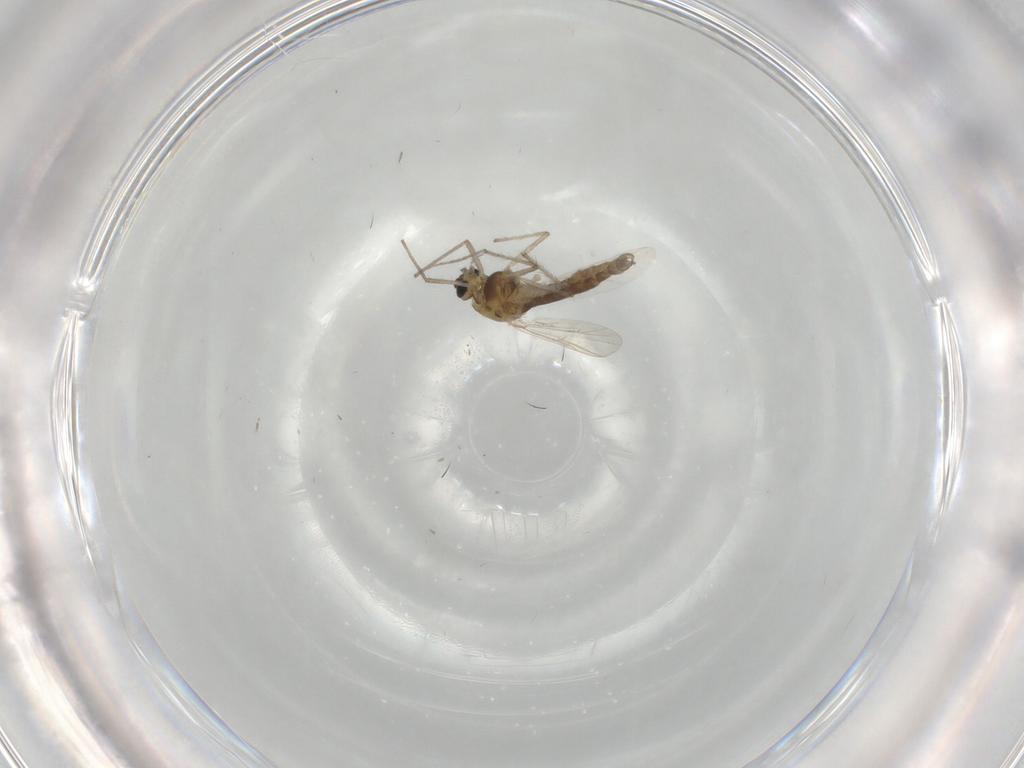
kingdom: Animalia
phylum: Arthropoda
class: Insecta
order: Diptera
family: Chironomidae
